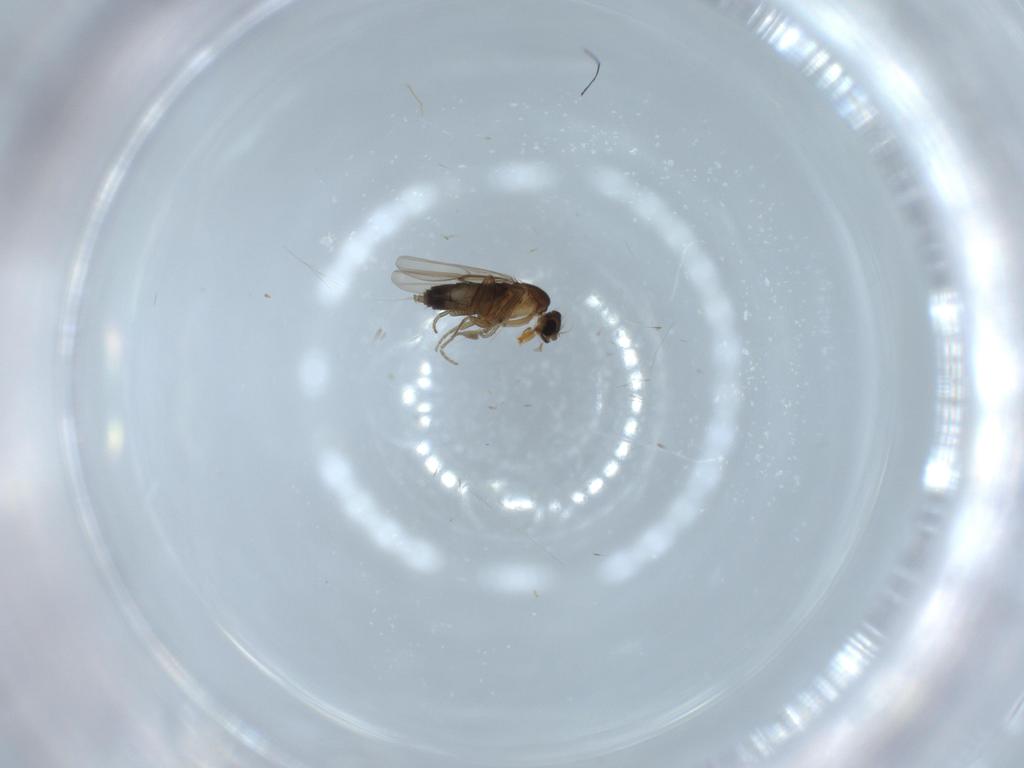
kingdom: Animalia
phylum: Arthropoda
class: Insecta
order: Diptera
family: Phoridae
